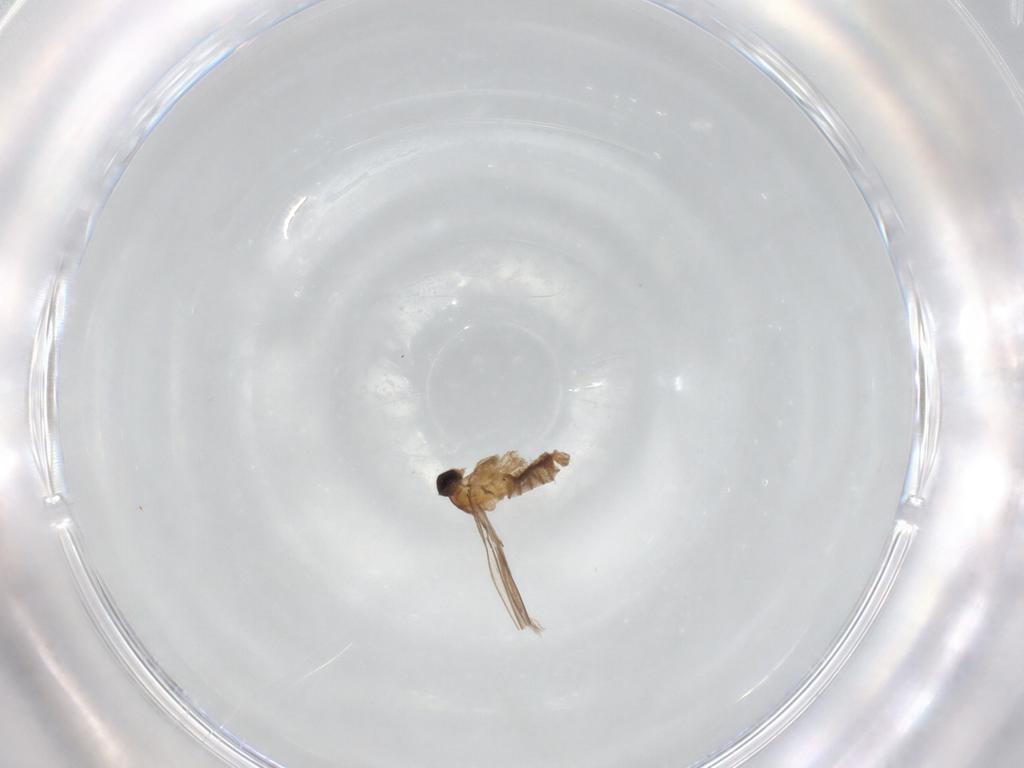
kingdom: Animalia
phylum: Arthropoda
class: Insecta
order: Diptera
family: Cecidomyiidae
